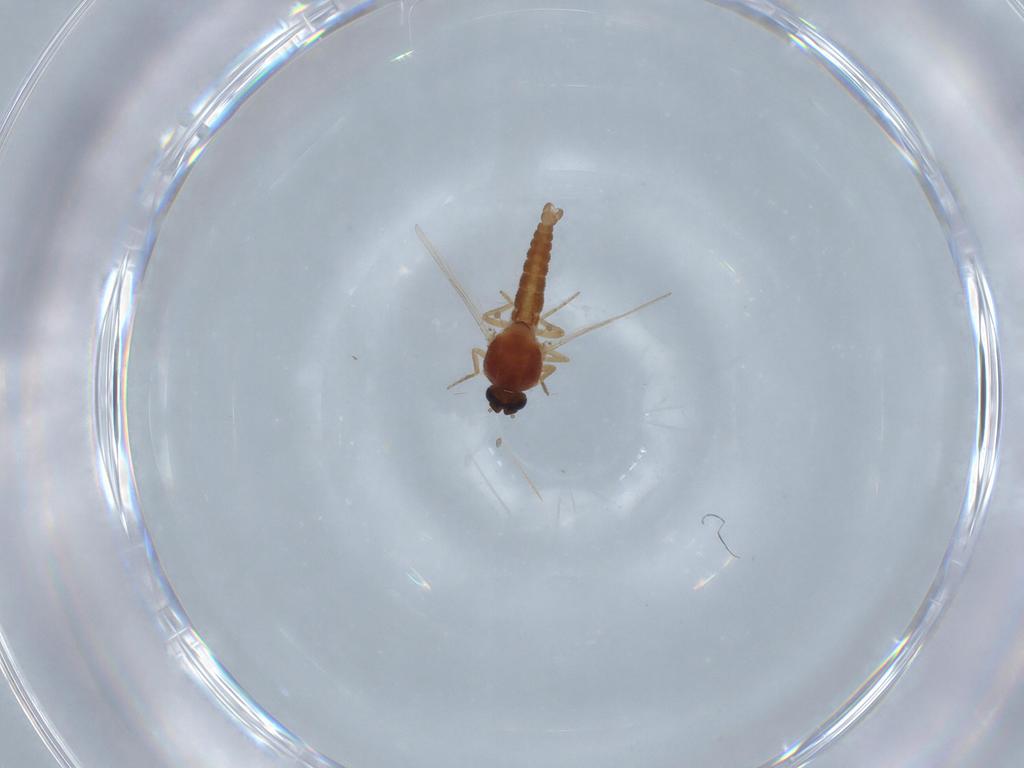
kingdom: Animalia
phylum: Arthropoda
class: Insecta
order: Diptera
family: Ceratopogonidae
